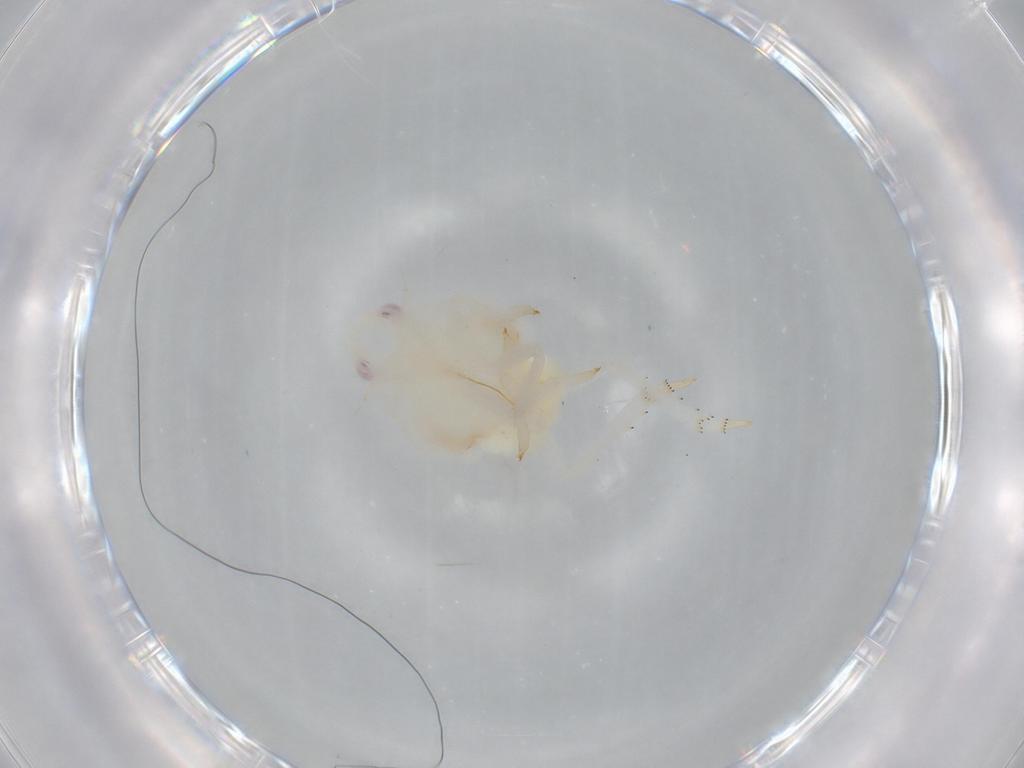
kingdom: Animalia
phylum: Arthropoda
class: Insecta
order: Hemiptera
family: Flatidae
